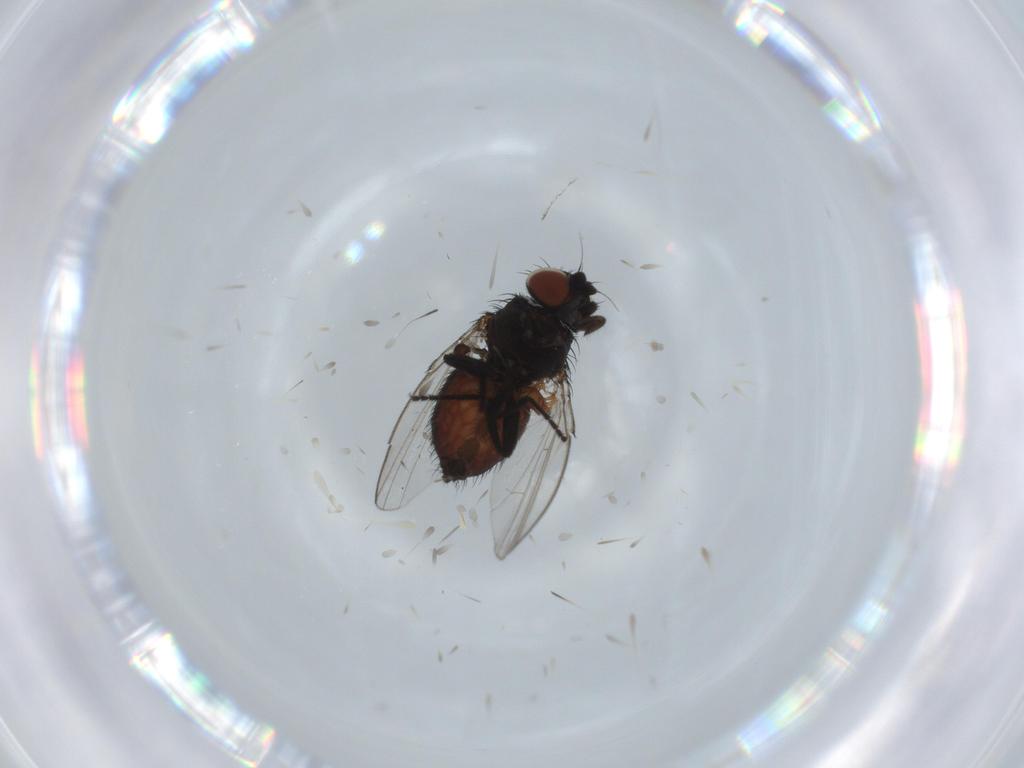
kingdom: Animalia
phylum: Arthropoda
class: Insecta
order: Diptera
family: Milichiidae
